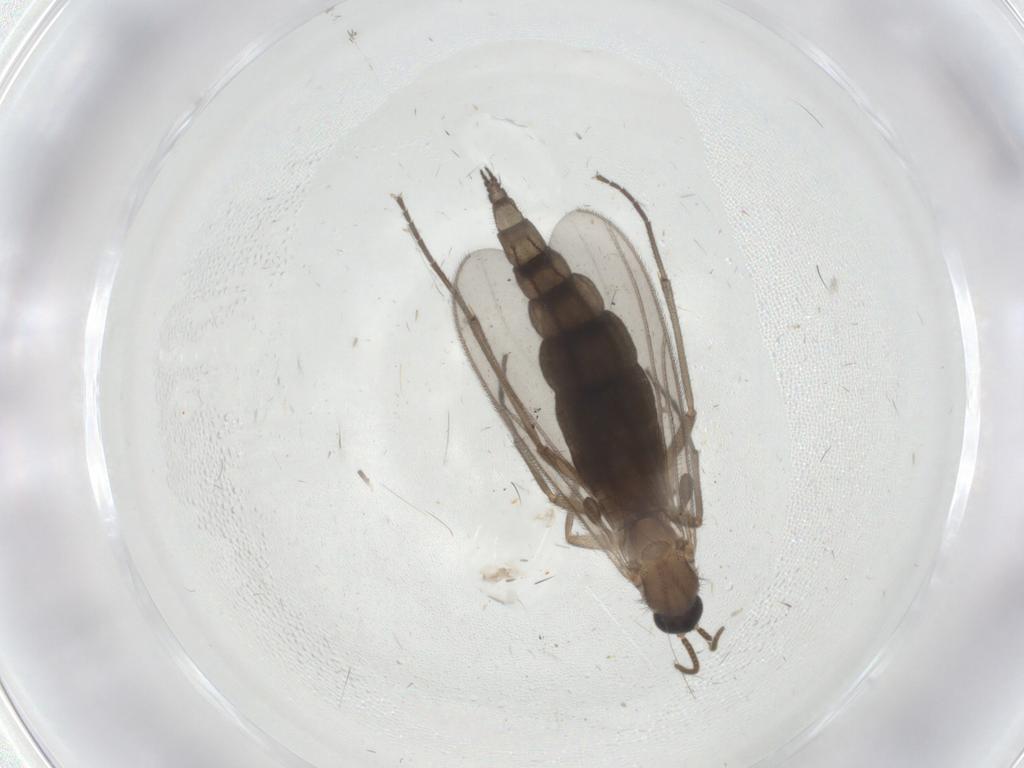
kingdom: Animalia
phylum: Arthropoda
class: Insecta
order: Diptera
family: Cecidomyiidae
